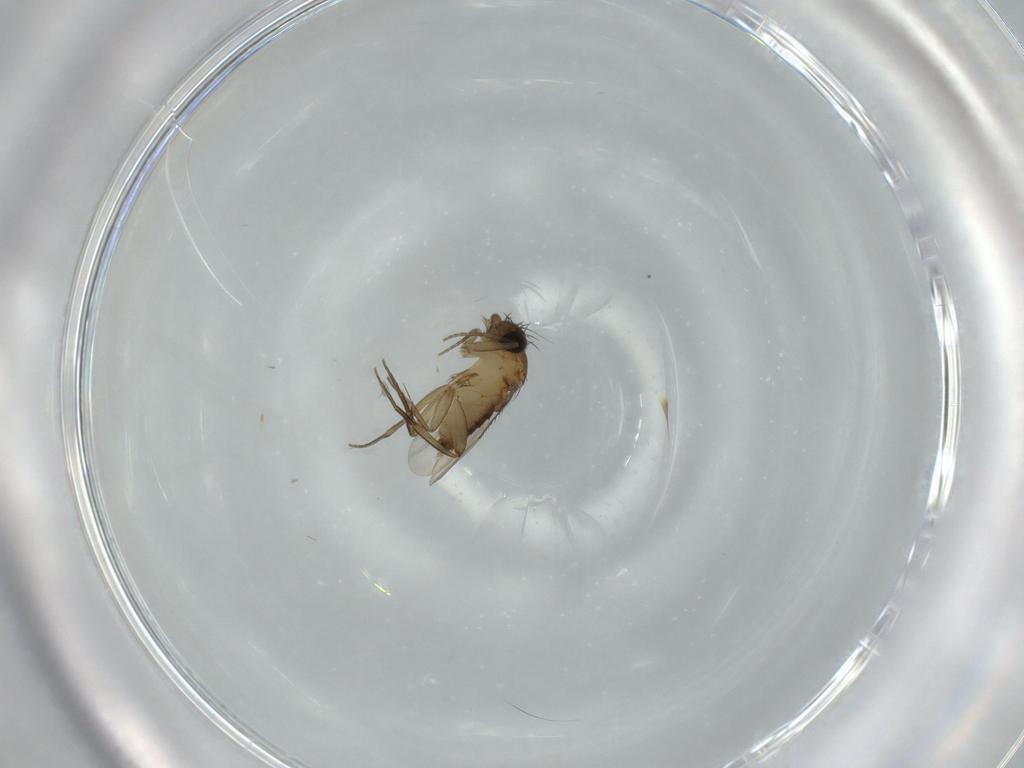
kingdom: Animalia
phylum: Arthropoda
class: Insecta
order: Diptera
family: Phoridae
